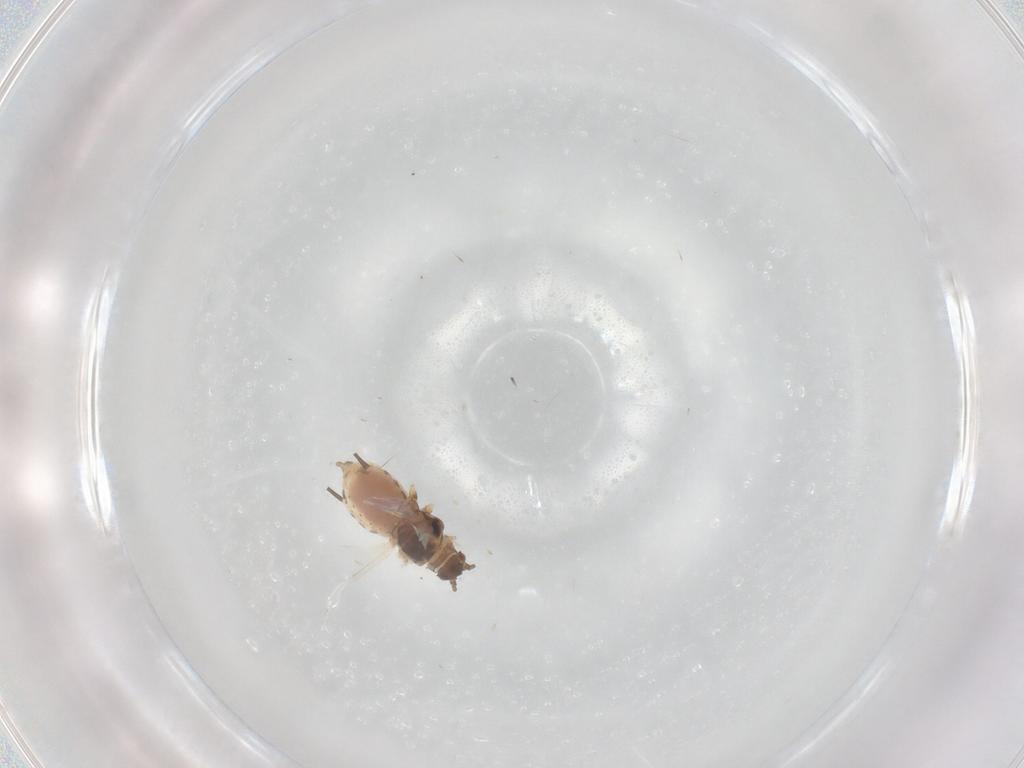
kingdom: Animalia
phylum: Arthropoda
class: Insecta
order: Hemiptera
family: Aphididae
